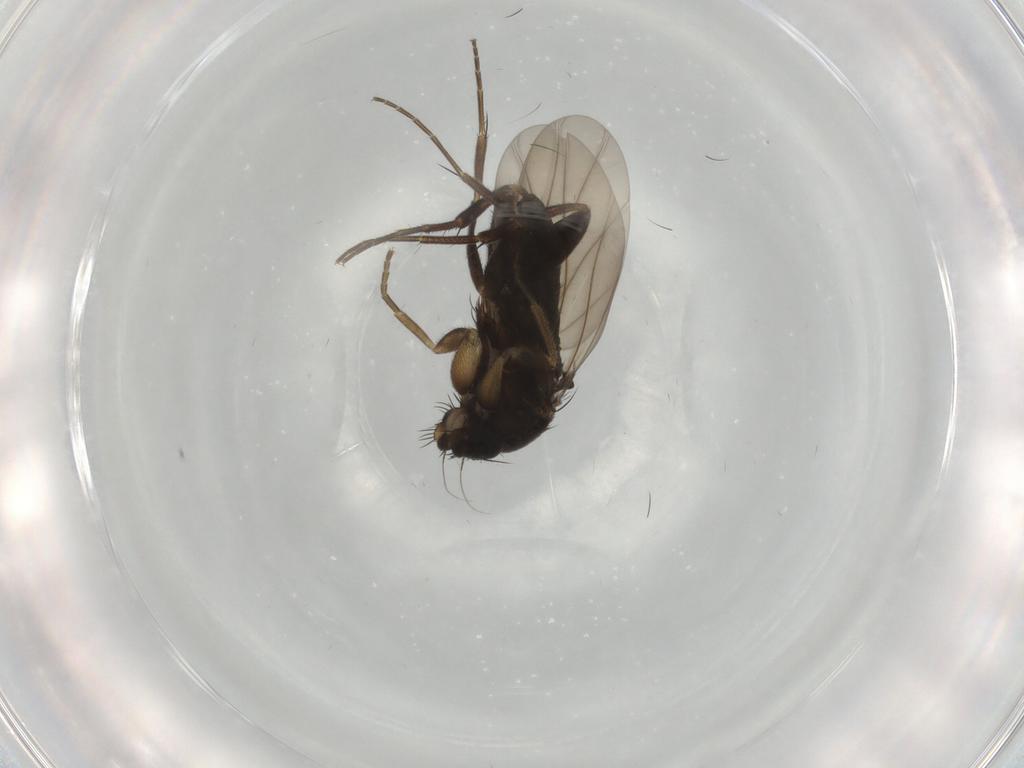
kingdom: Animalia
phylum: Arthropoda
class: Insecta
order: Diptera
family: Phoridae
